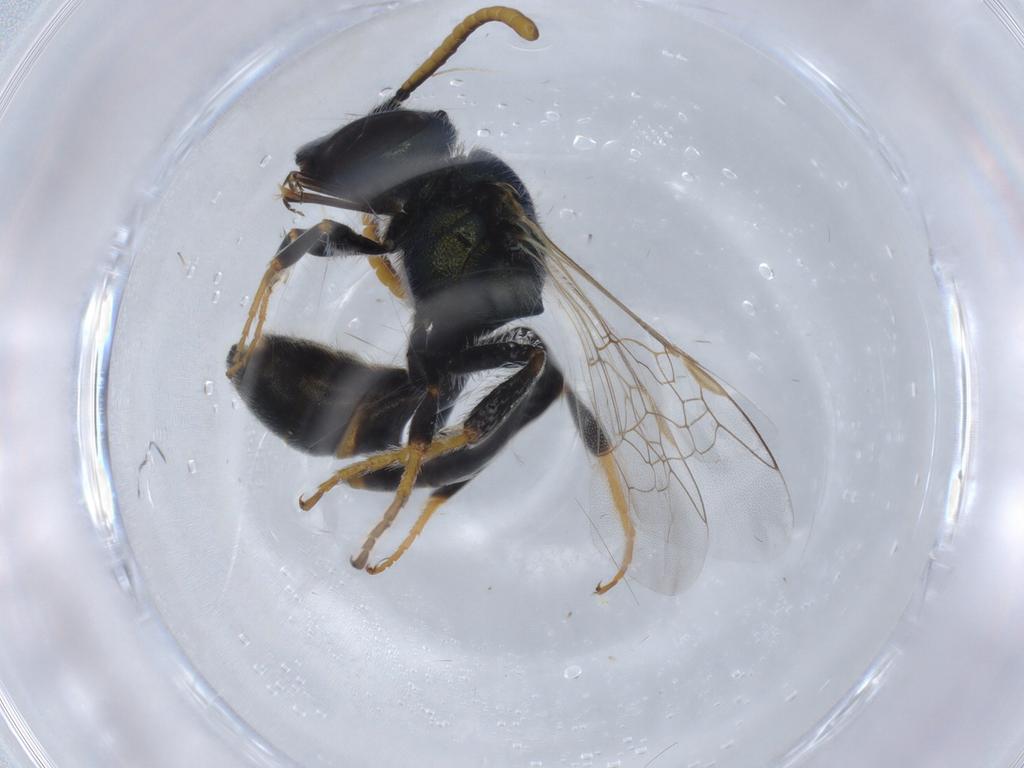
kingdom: Animalia
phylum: Arthropoda
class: Insecta
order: Hymenoptera
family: Halictidae
